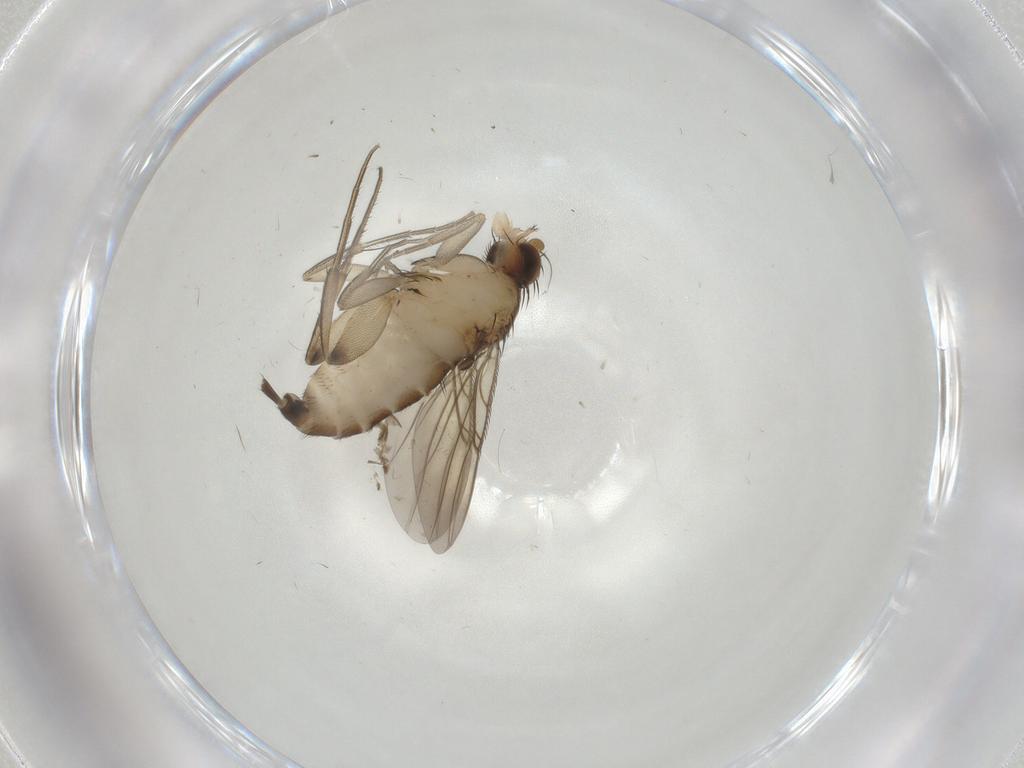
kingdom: Animalia
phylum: Arthropoda
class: Insecta
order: Diptera
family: Phoridae
